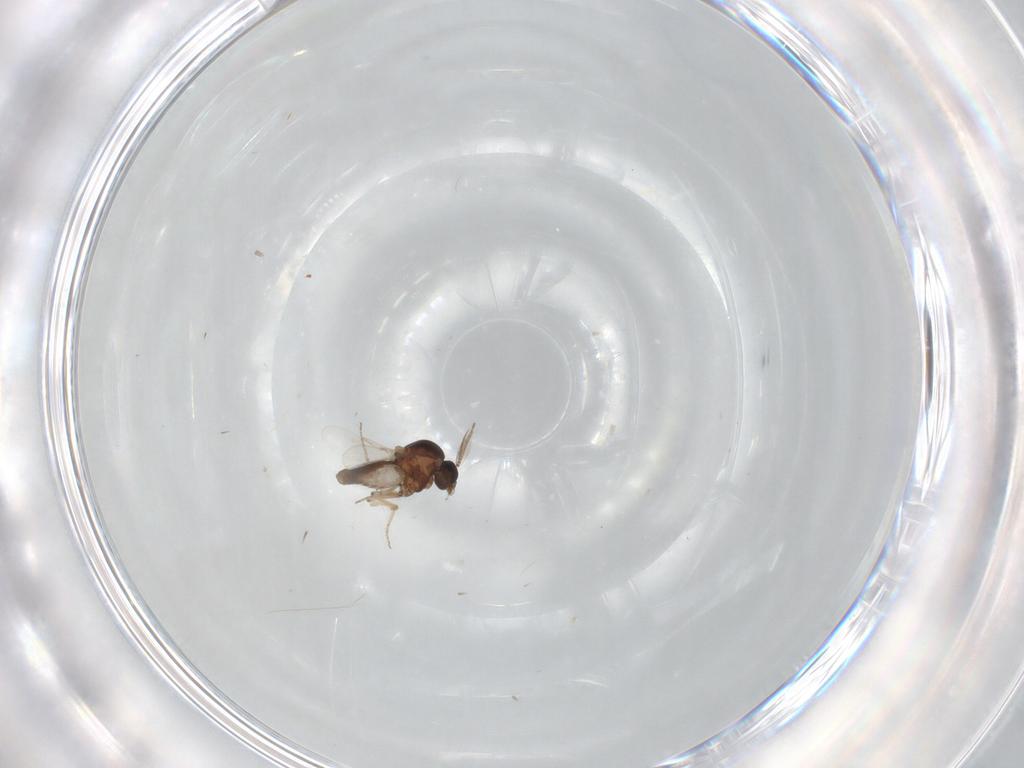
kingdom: Animalia
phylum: Arthropoda
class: Insecta
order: Diptera
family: Ceratopogonidae
